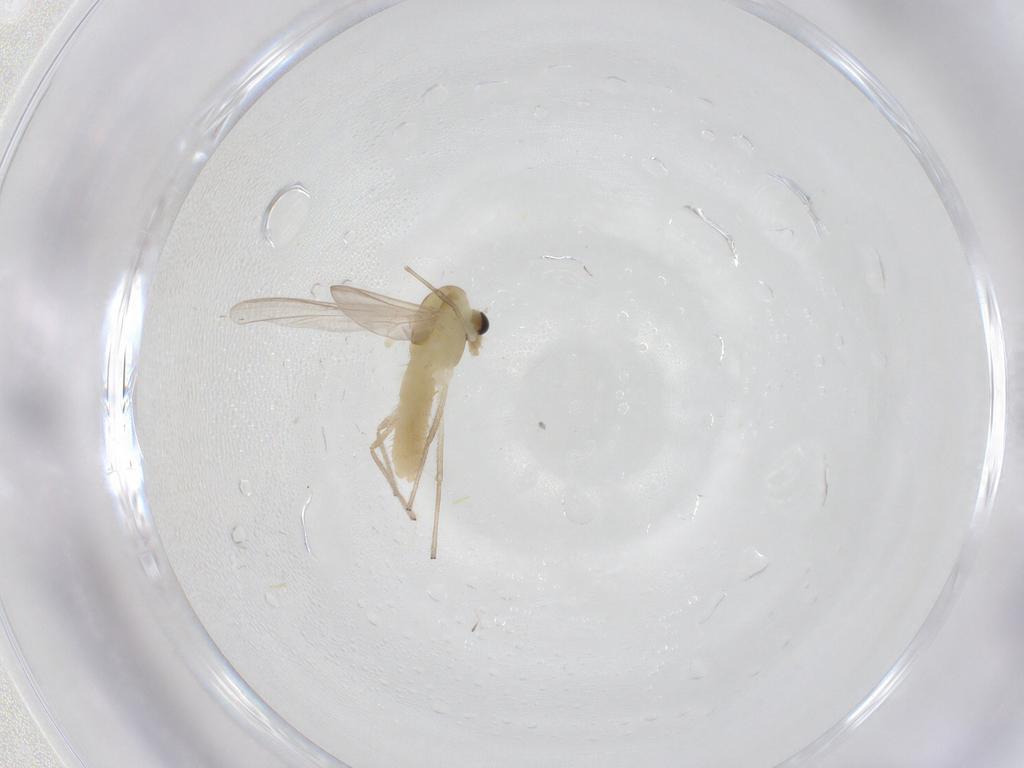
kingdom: Animalia
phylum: Arthropoda
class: Insecta
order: Diptera
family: Chironomidae
